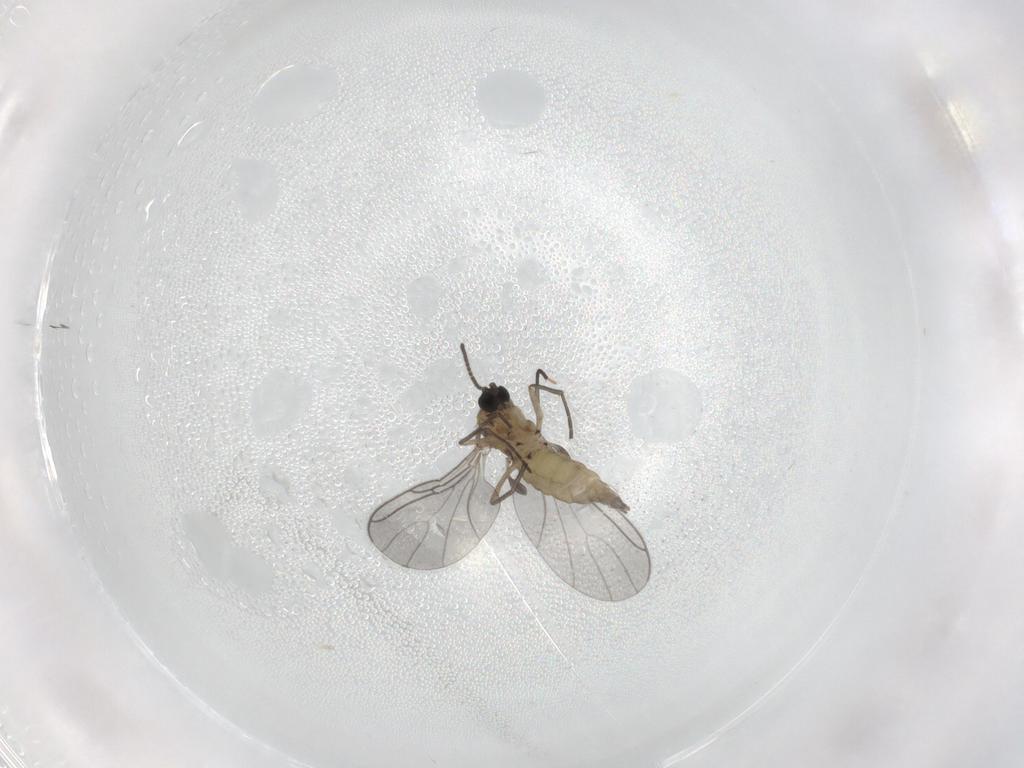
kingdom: Animalia
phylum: Arthropoda
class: Insecta
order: Diptera
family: Sciaridae
